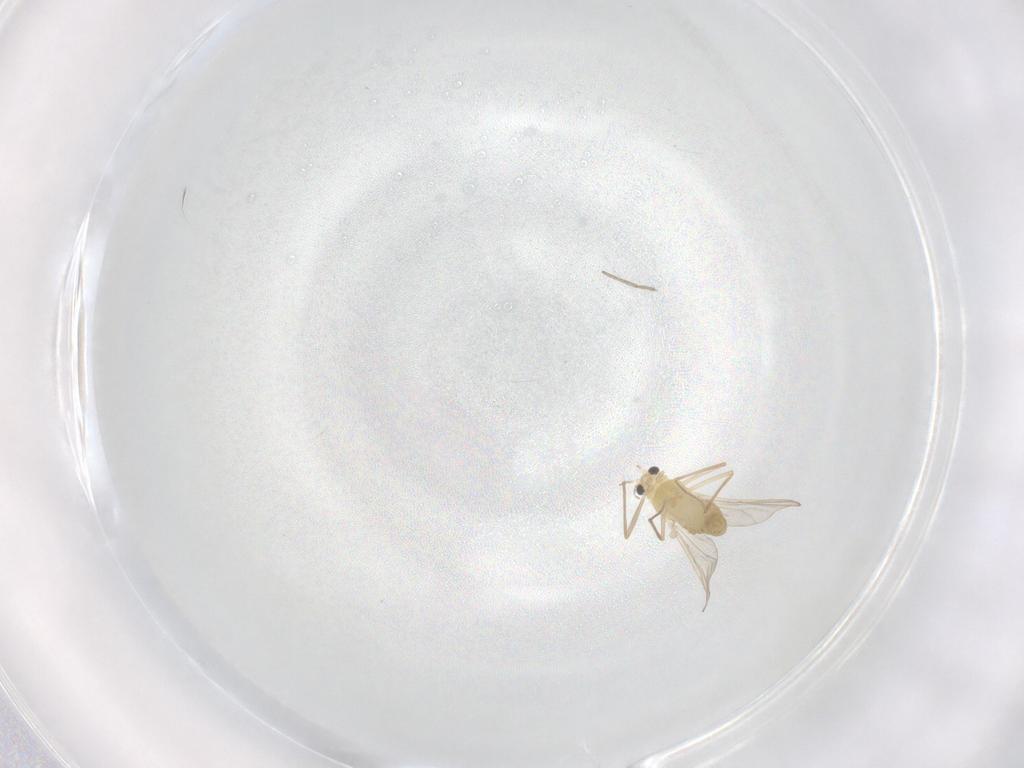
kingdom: Animalia
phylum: Arthropoda
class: Insecta
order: Diptera
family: Chironomidae
